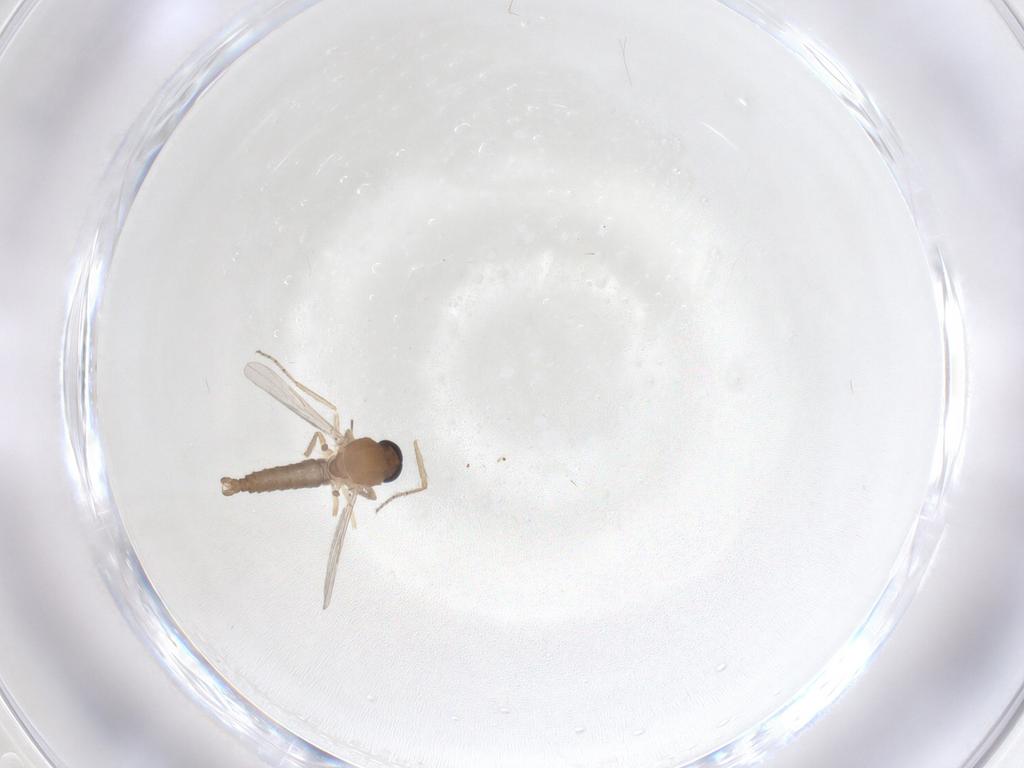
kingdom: Animalia
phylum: Arthropoda
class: Insecta
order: Diptera
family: Ceratopogonidae
